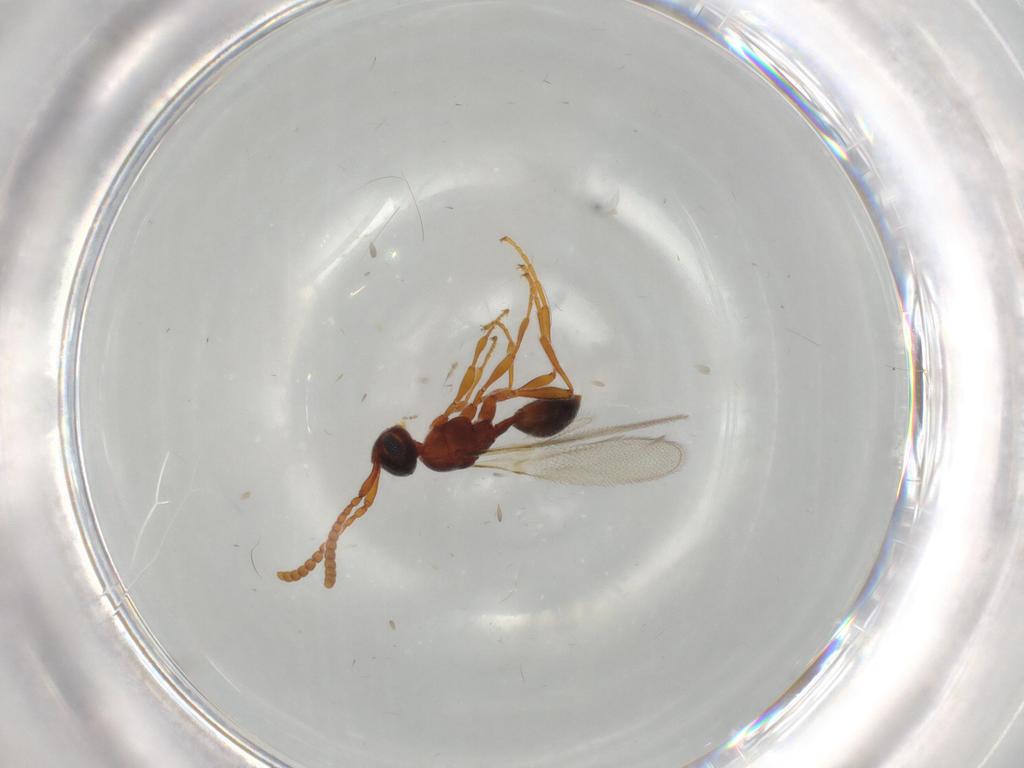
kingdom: Animalia
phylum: Arthropoda
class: Insecta
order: Hymenoptera
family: Diapriidae
